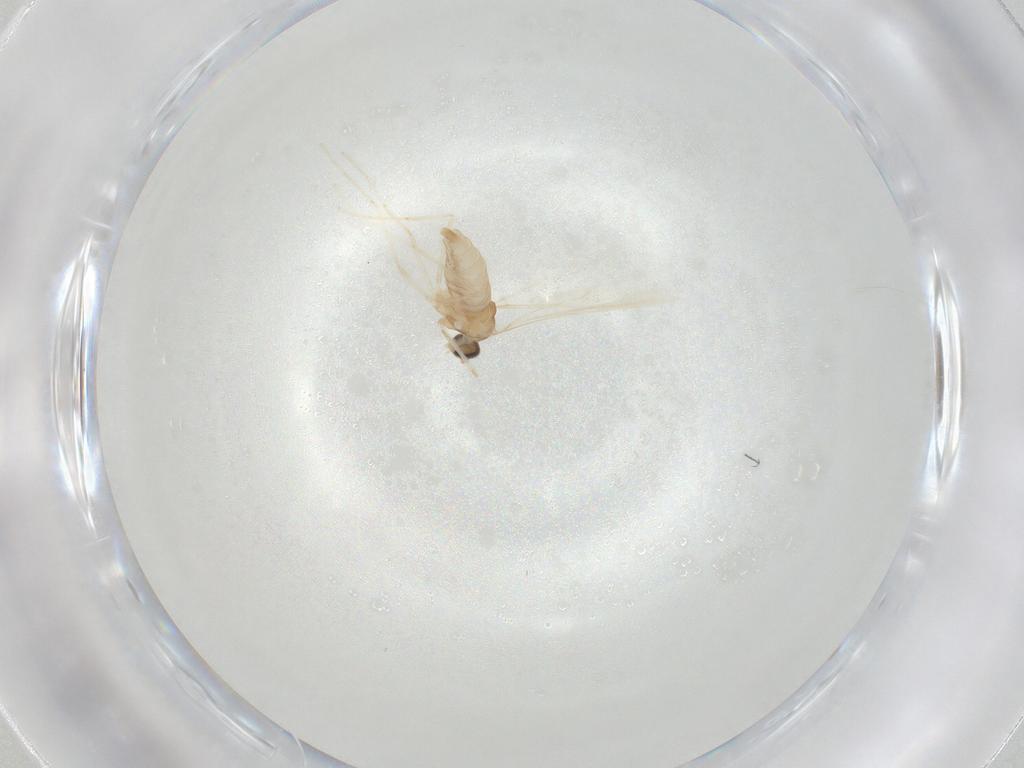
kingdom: Animalia
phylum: Arthropoda
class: Insecta
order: Diptera
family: Cecidomyiidae
